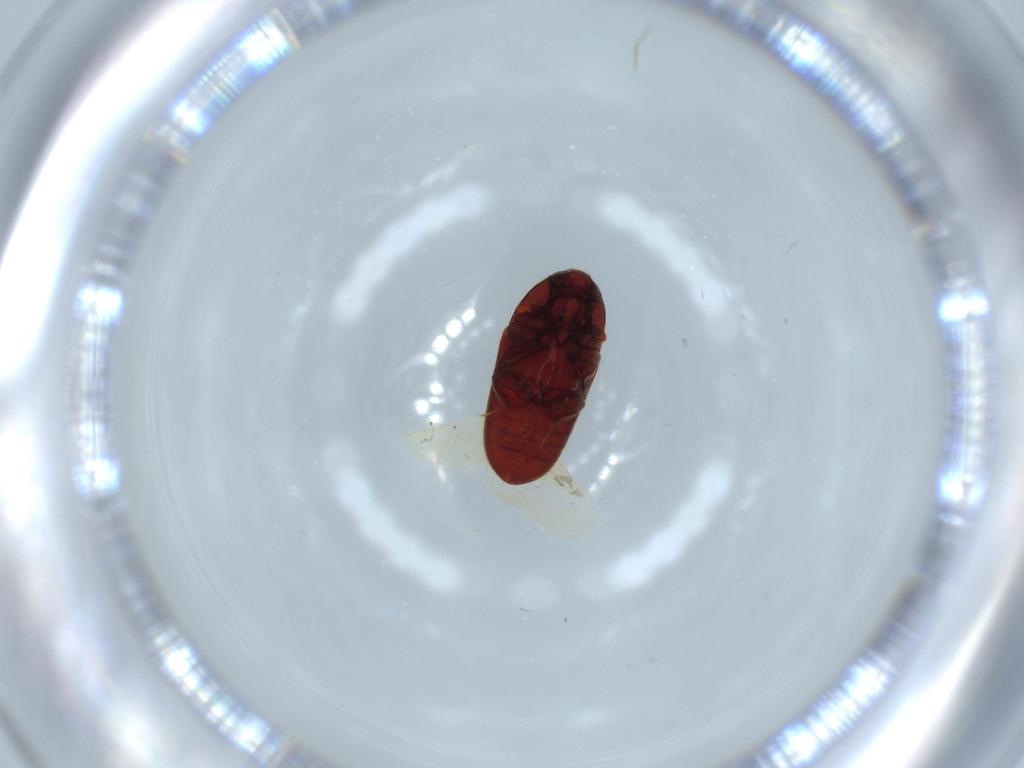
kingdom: Animalia
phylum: Arthropoda
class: Insecta
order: Coleoptera
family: Throscidae
